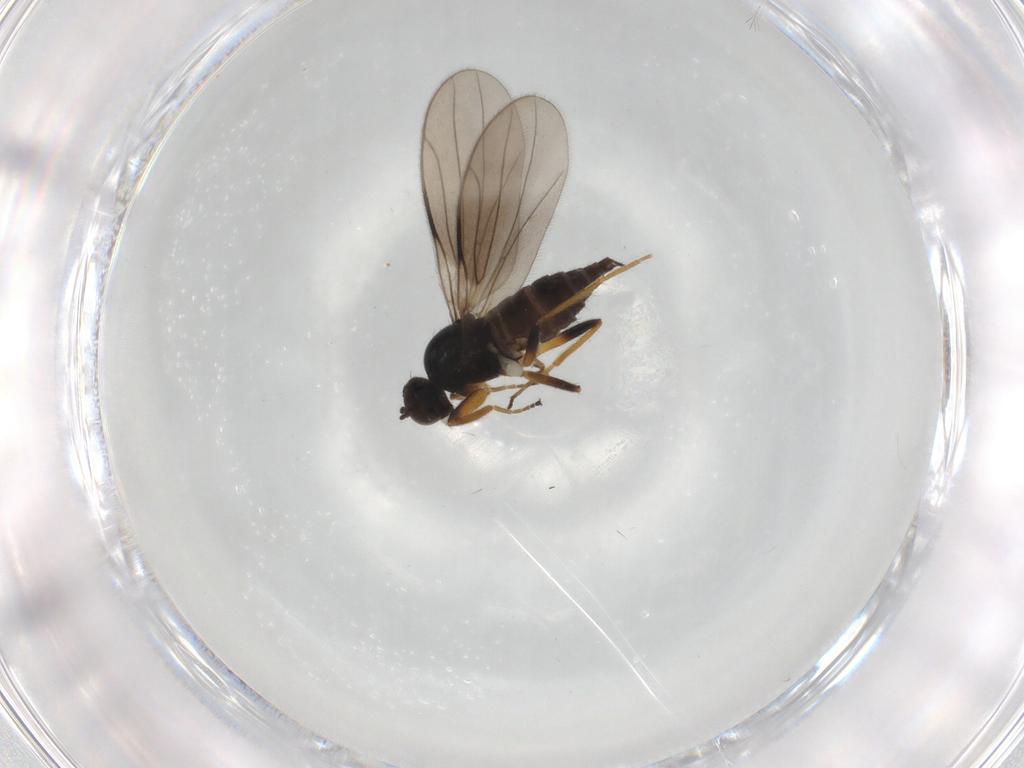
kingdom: Animalia
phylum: Arthropoda
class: Insecta
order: Diptera
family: Hybotidae
